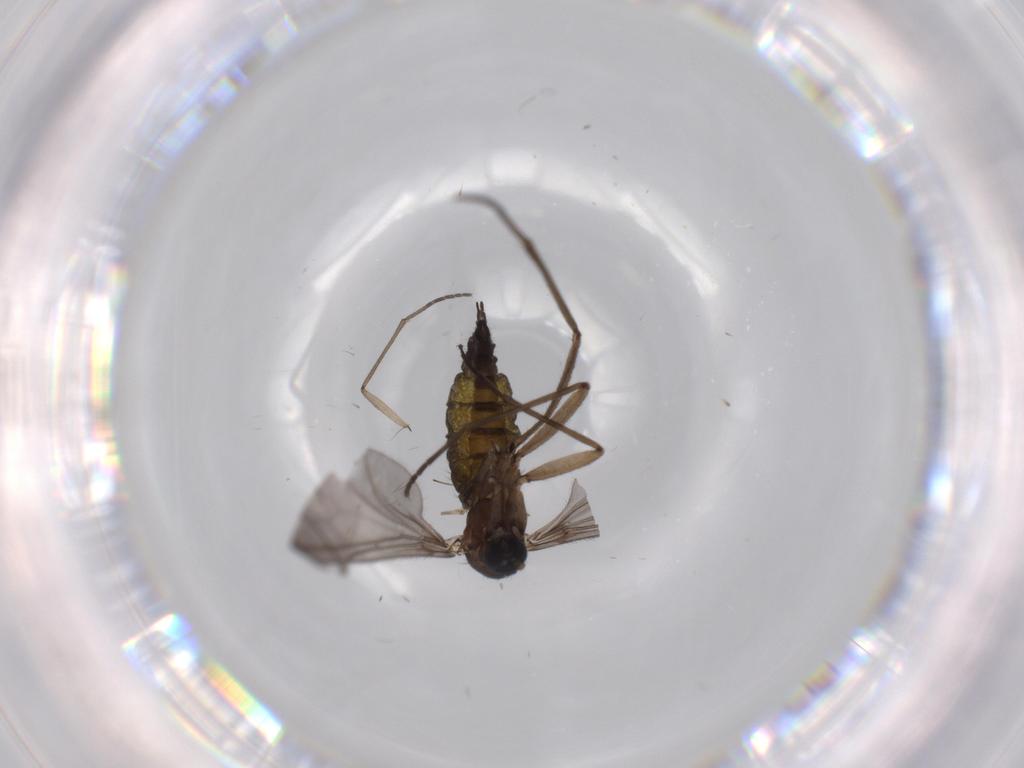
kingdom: Animalia
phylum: Arthropoda
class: Insecta
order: Diptera
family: Sciaridae
